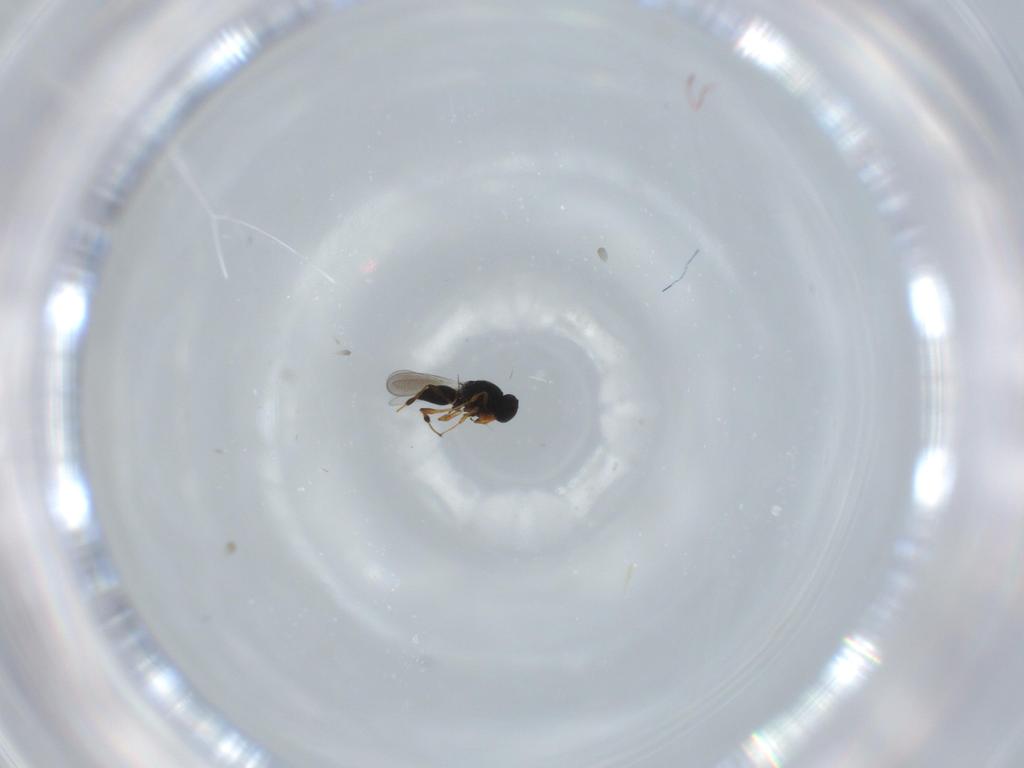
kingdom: Animalia
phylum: Arthropoda
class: Insecta
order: Hymenoptera
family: Platygastridae
